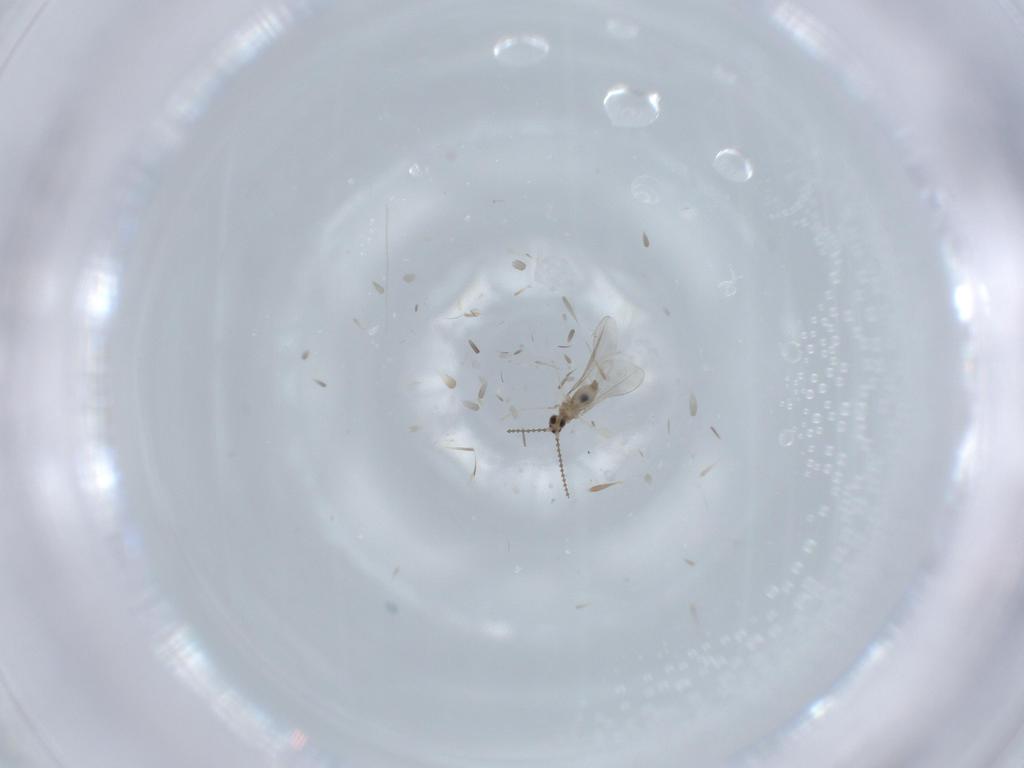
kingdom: Animalia
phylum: Arthropoda
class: Insecta
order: Diptera
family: Cecidomyiidae
